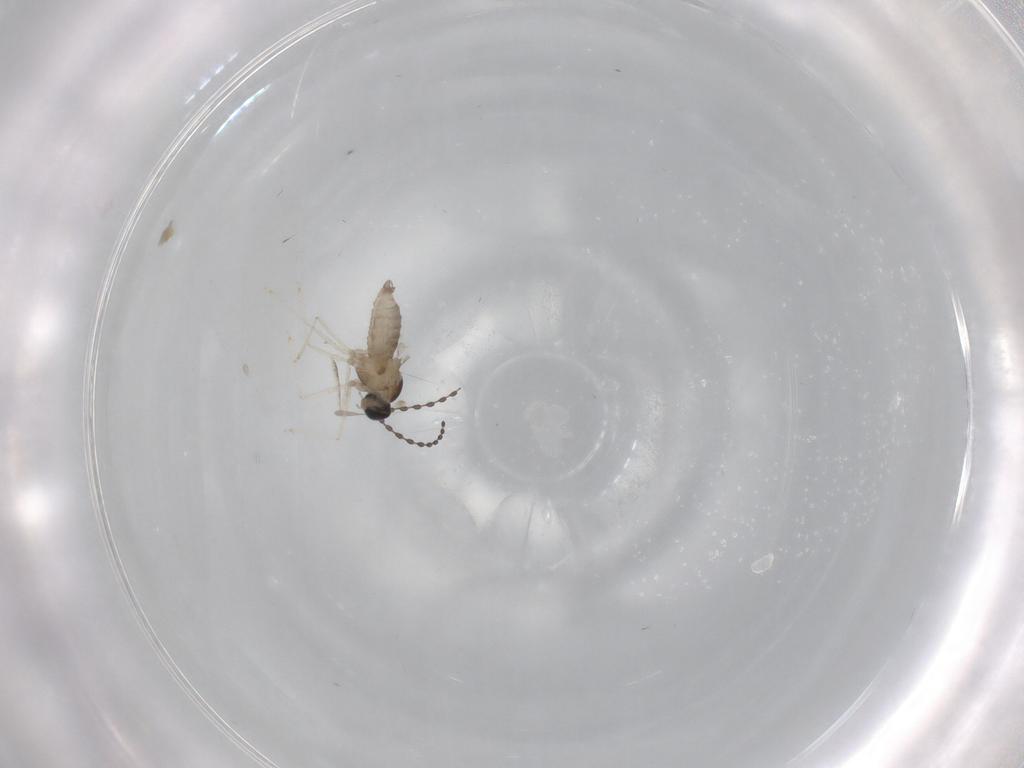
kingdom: Animalia
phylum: Arthropoda
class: Insecta
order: Diptera
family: Cecidomyiidae
